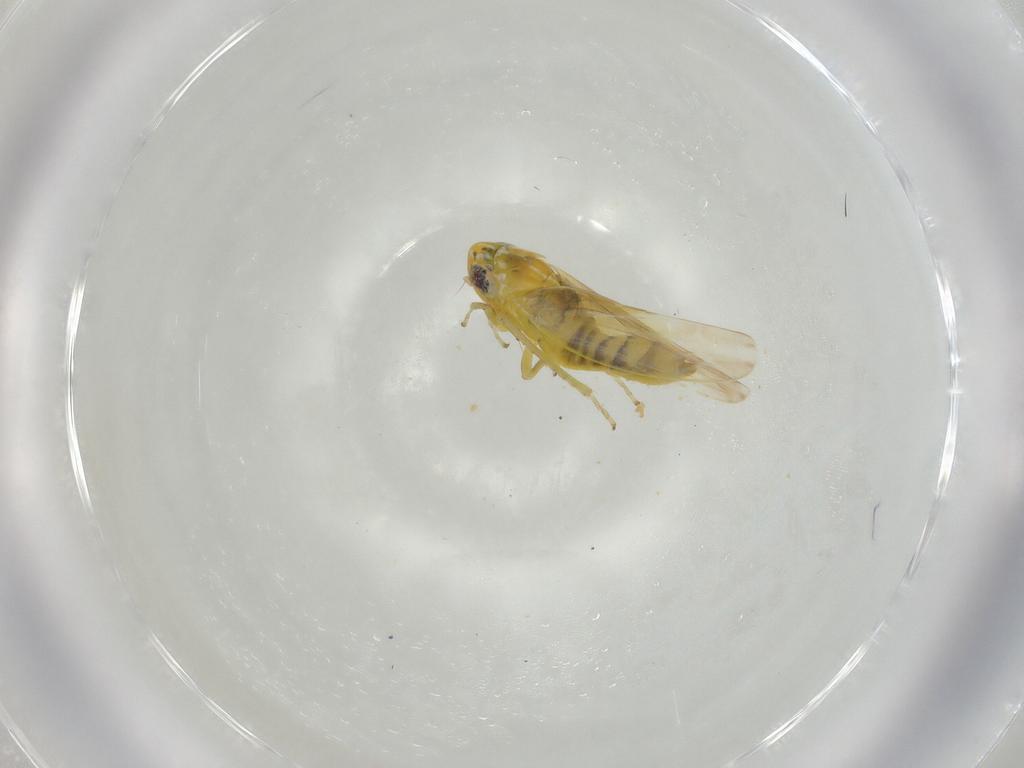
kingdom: Animalia
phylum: Arthropoda
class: Insecta
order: Hemiptera
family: Cicadellidae
